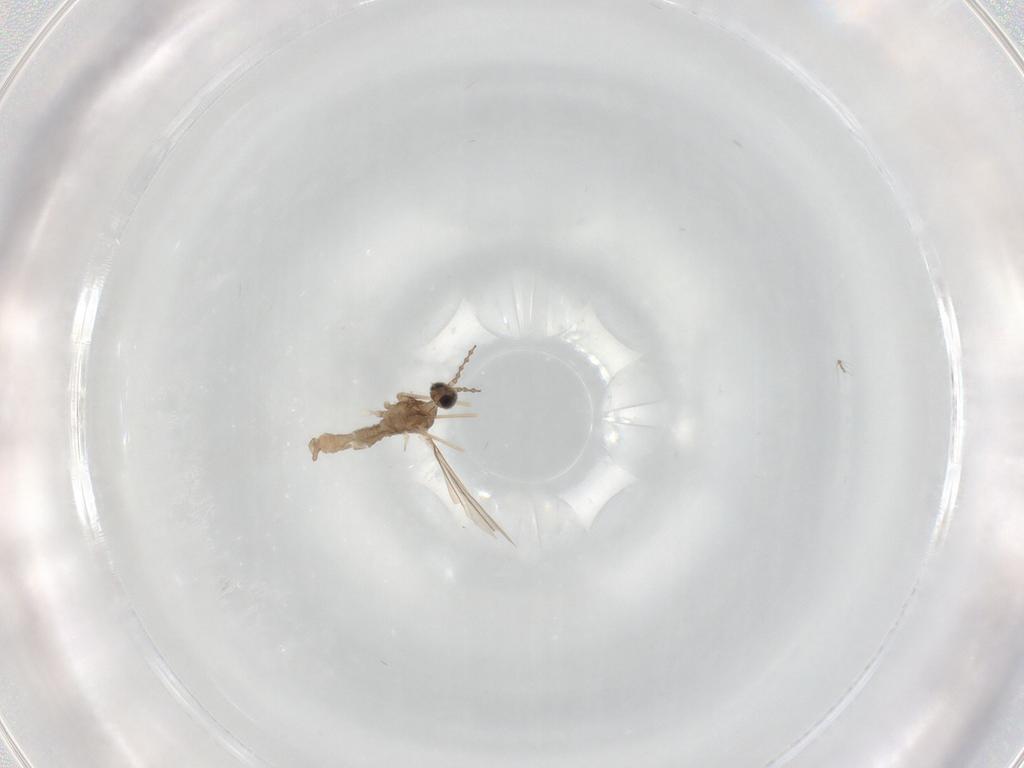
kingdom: Animalia
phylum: Arthropoda
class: Insecta
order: Diptera
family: Cecidomyiidae
